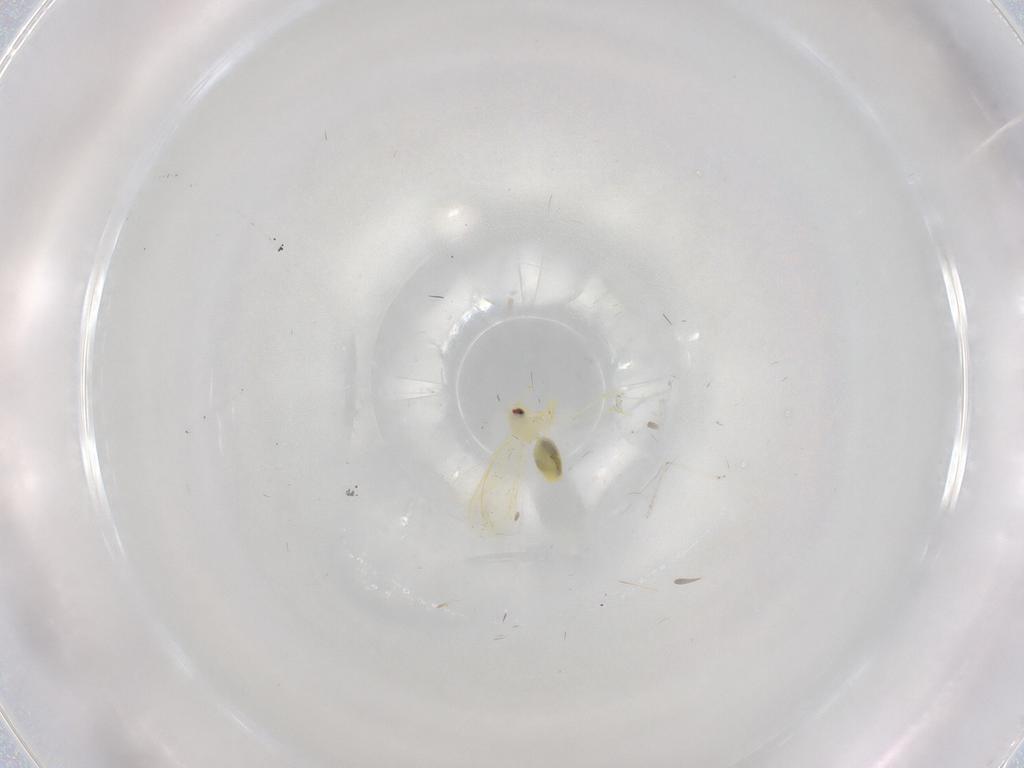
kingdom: Animalia
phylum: Arthropoda
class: Insecta
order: Hemiptera
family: Aleyrodidae
